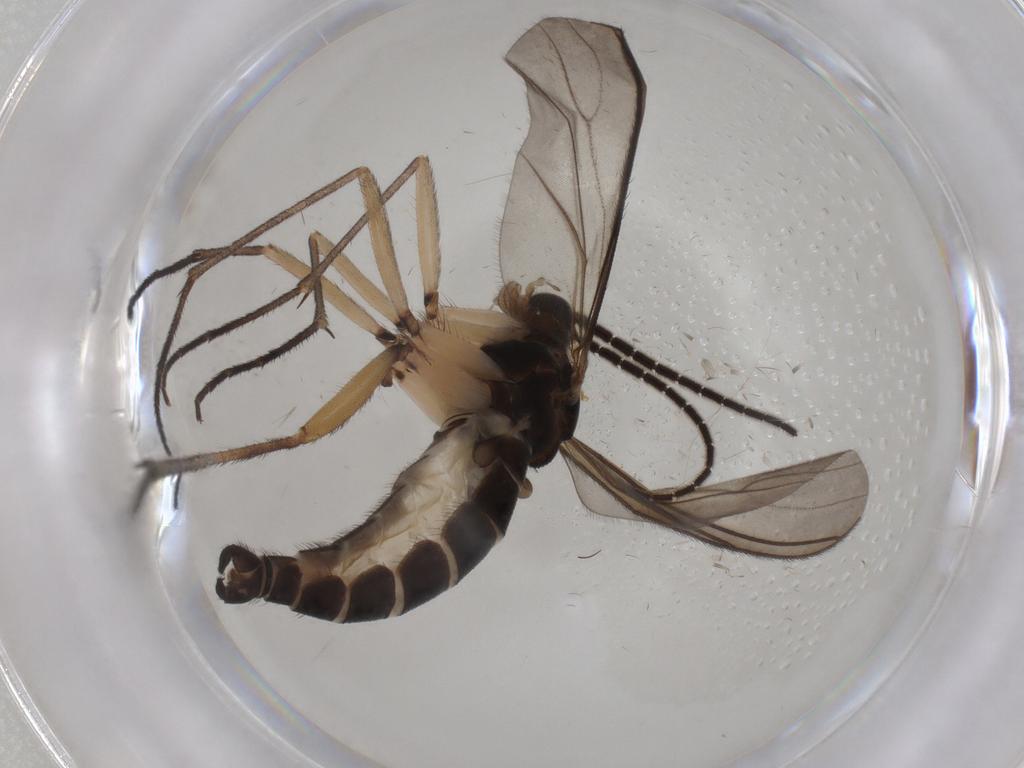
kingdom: Animalia
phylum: Arthropoda
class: Insecta
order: Diptera
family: Sciaridae
